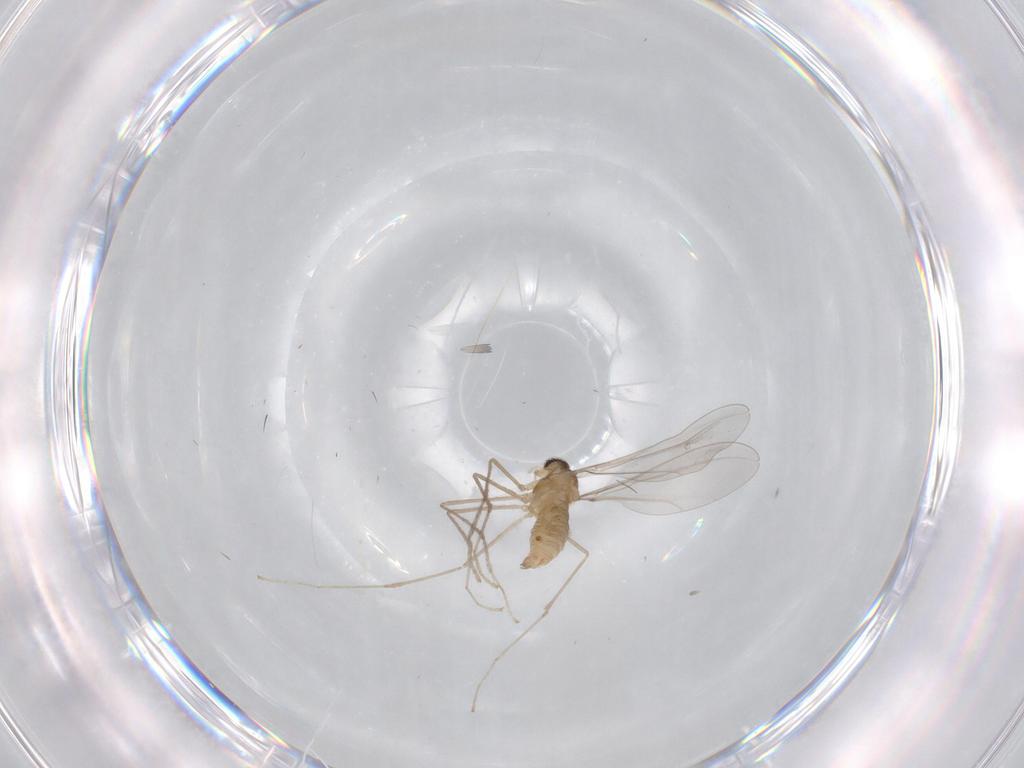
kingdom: Animalia
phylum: Arthropoda
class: Insecta
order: Diptera
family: Cecidomyiidae
